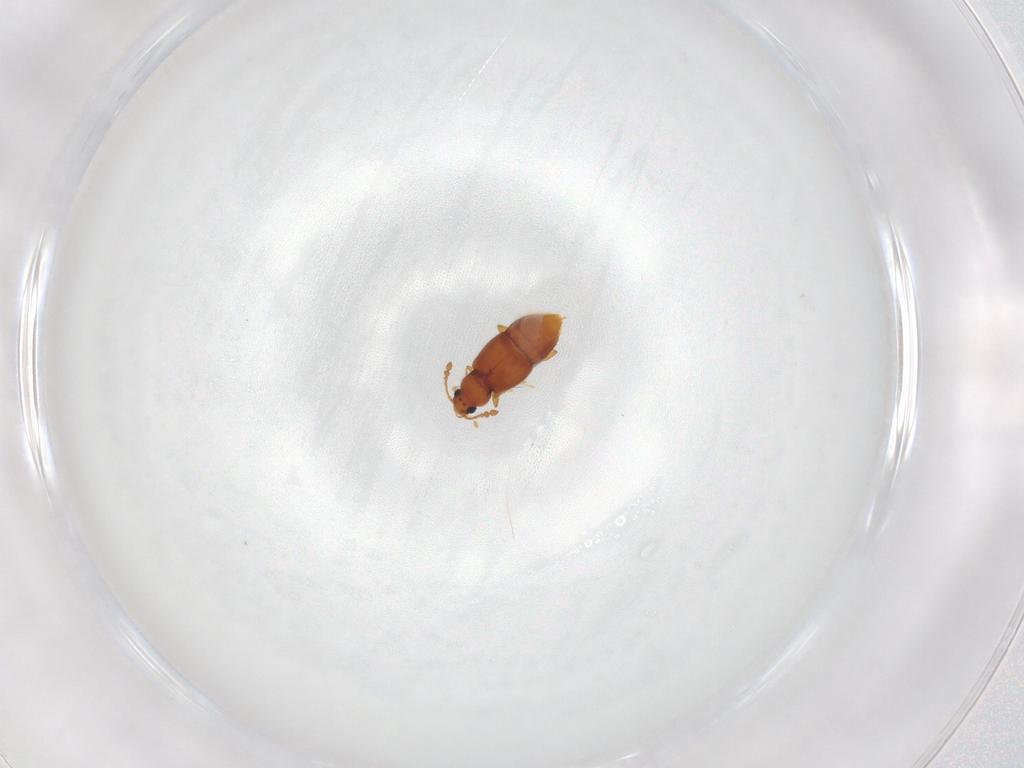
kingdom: Animalia
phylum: Arthropoda
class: Insecta
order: Coleoptera
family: Staphylinidae
